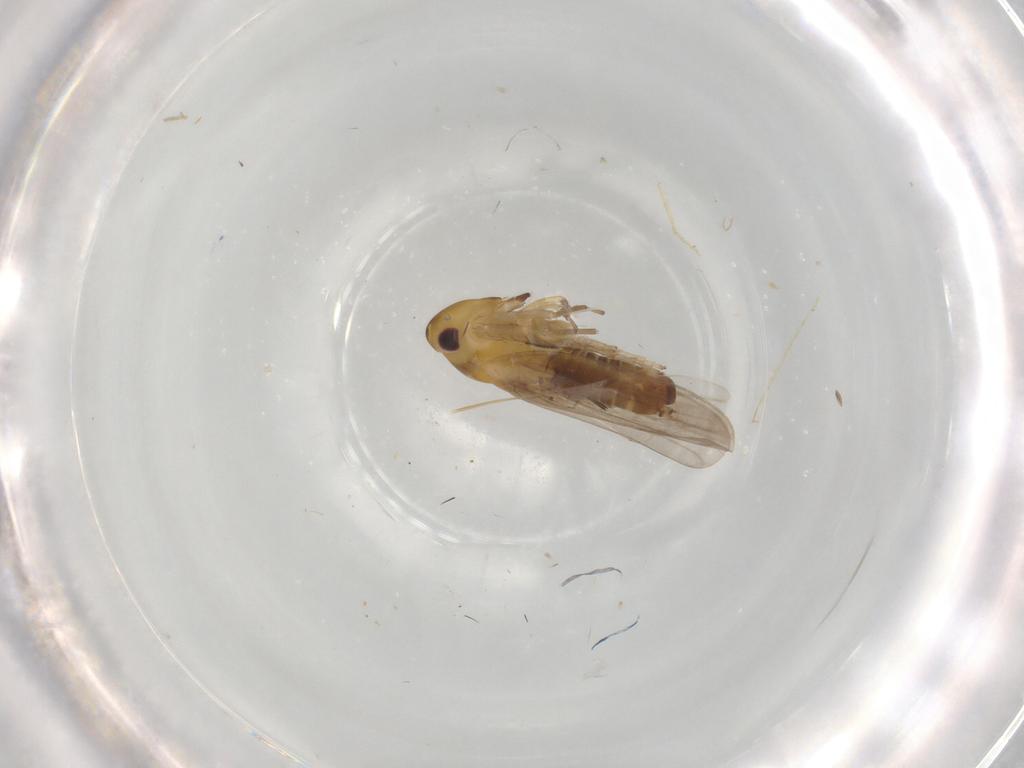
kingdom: Animalia
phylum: Arthropoda
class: Insecta
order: Hemiptera
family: Cicadellidae
